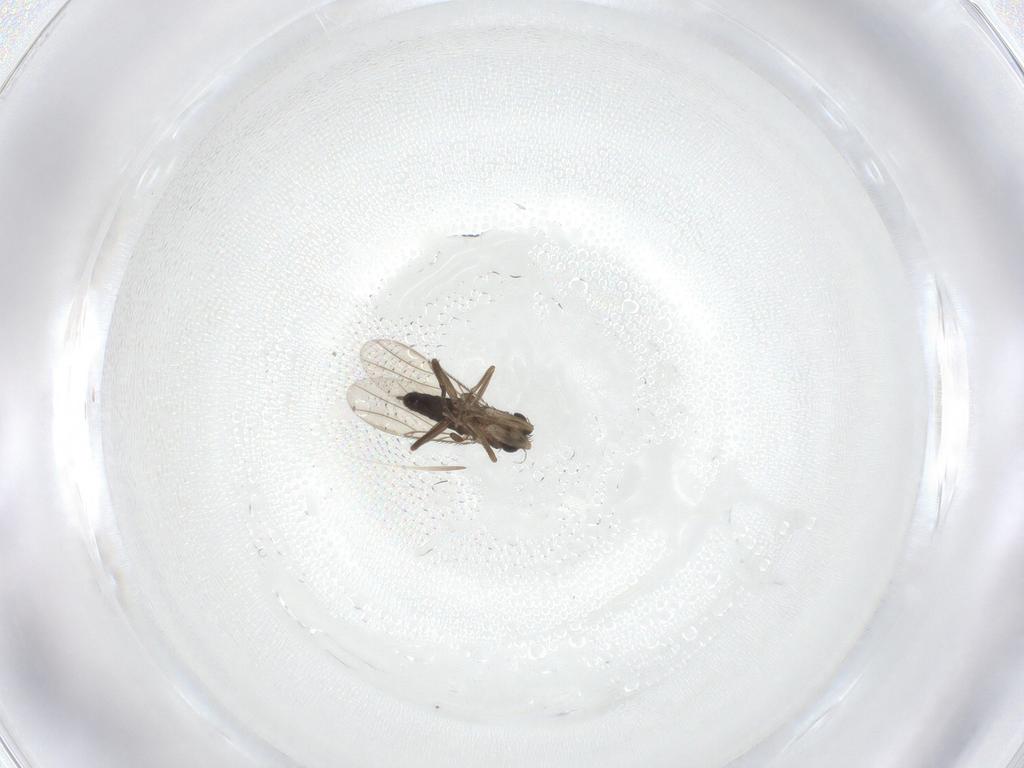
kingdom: Animalia
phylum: Arthropoda
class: Insecta
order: Diptera
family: Phoridae
